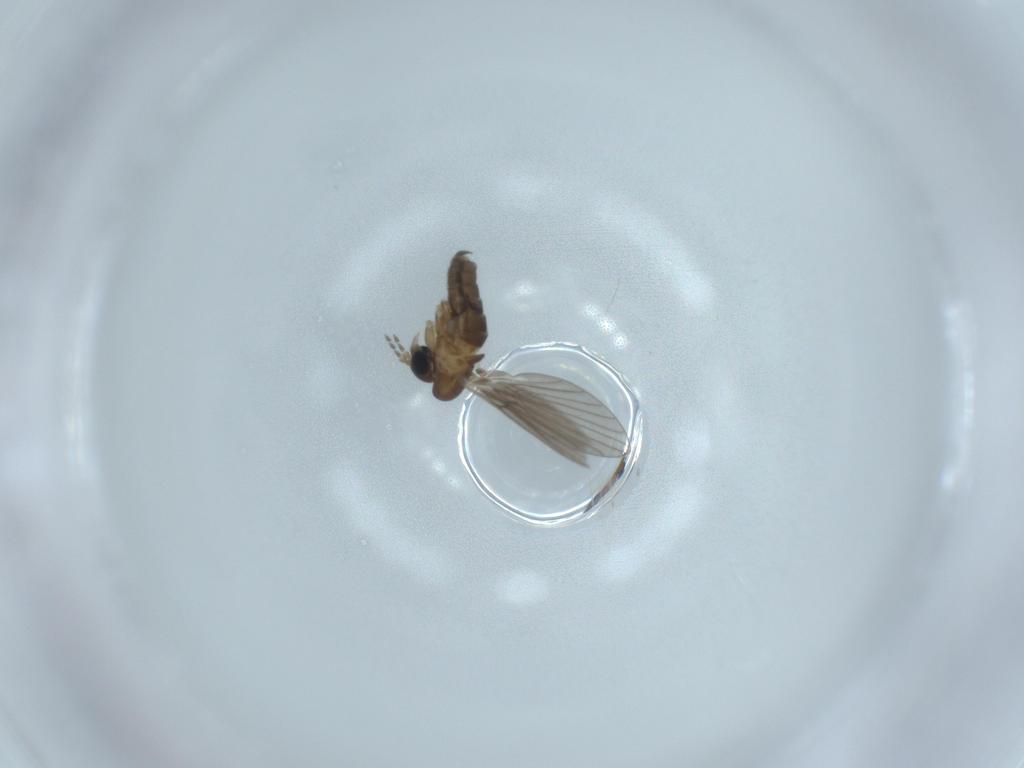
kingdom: Animalia
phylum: Arthropoda
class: Insecta
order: Diptera
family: Psychodidae
